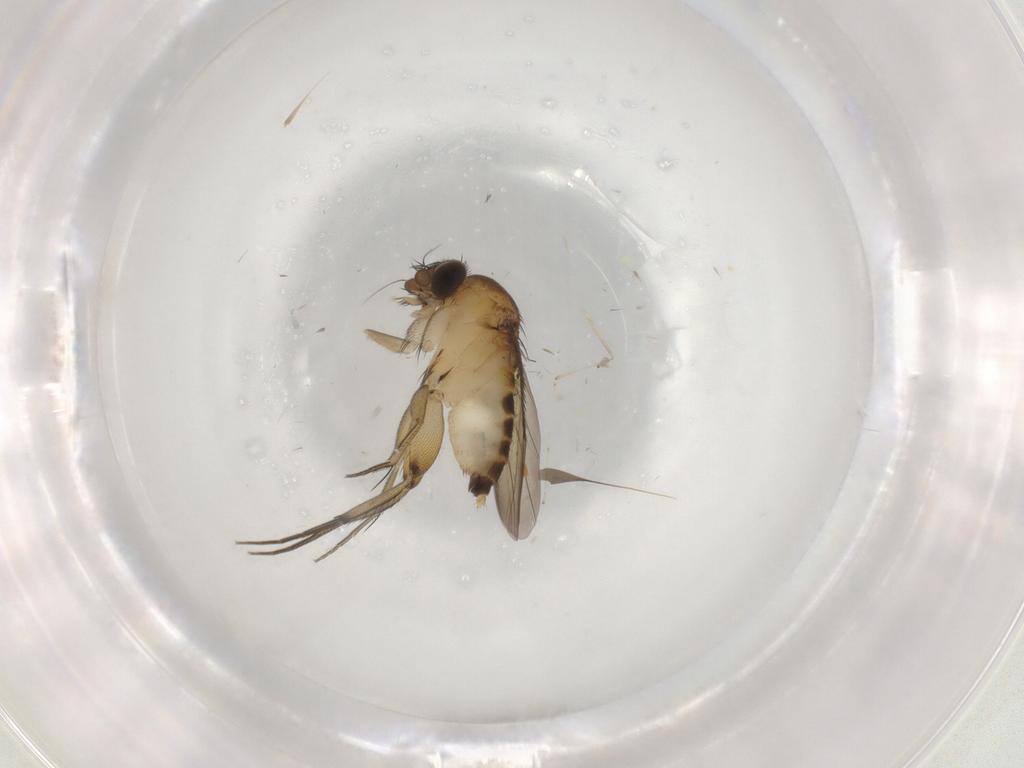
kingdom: Animalia
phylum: Arthropoda
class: Insecta
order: Diptera
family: Phoridae
